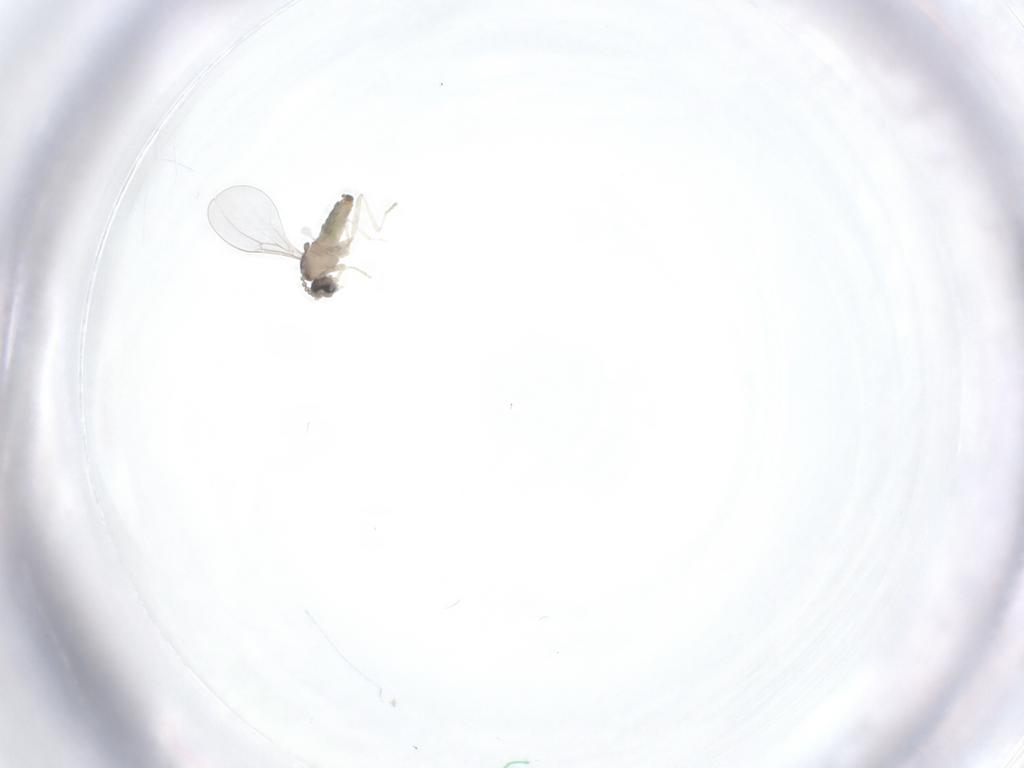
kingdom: Animalia
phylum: Arthropoda
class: Insecta
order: Diptera
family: Cecidomyiidae
